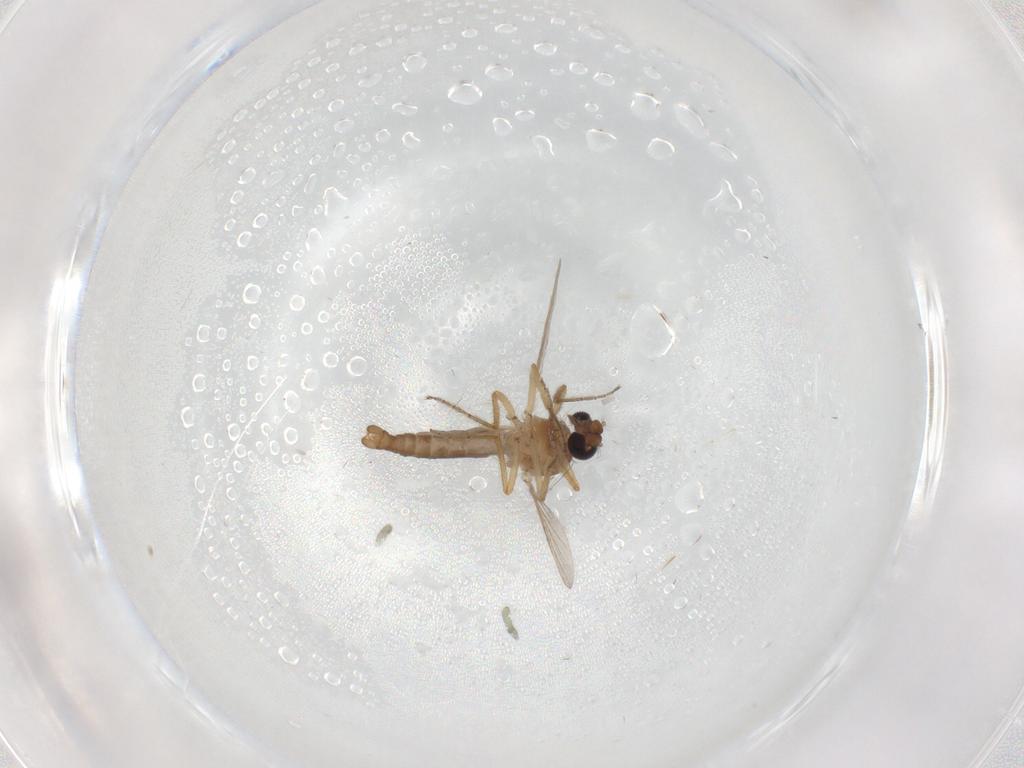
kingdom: Animalia
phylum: Arthropoda
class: Insecta
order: Diptera
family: Ceratopogonidae
